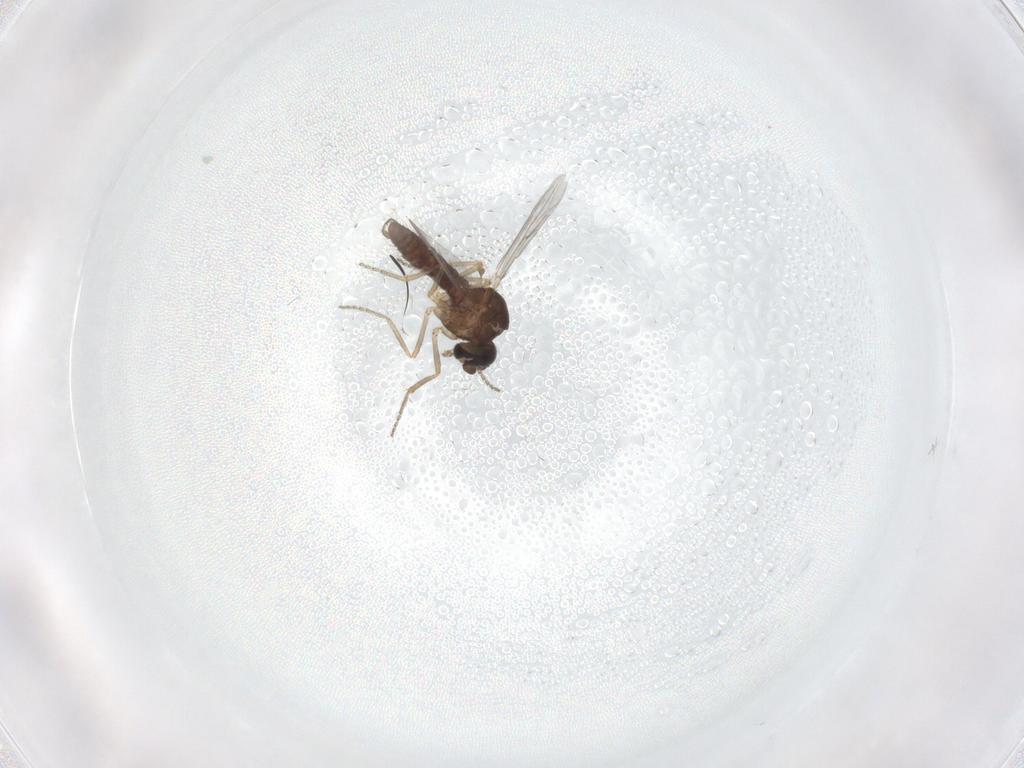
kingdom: Animalia
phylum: Arthropoda
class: Insecta
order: Diptera
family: Ceratopogonidae
